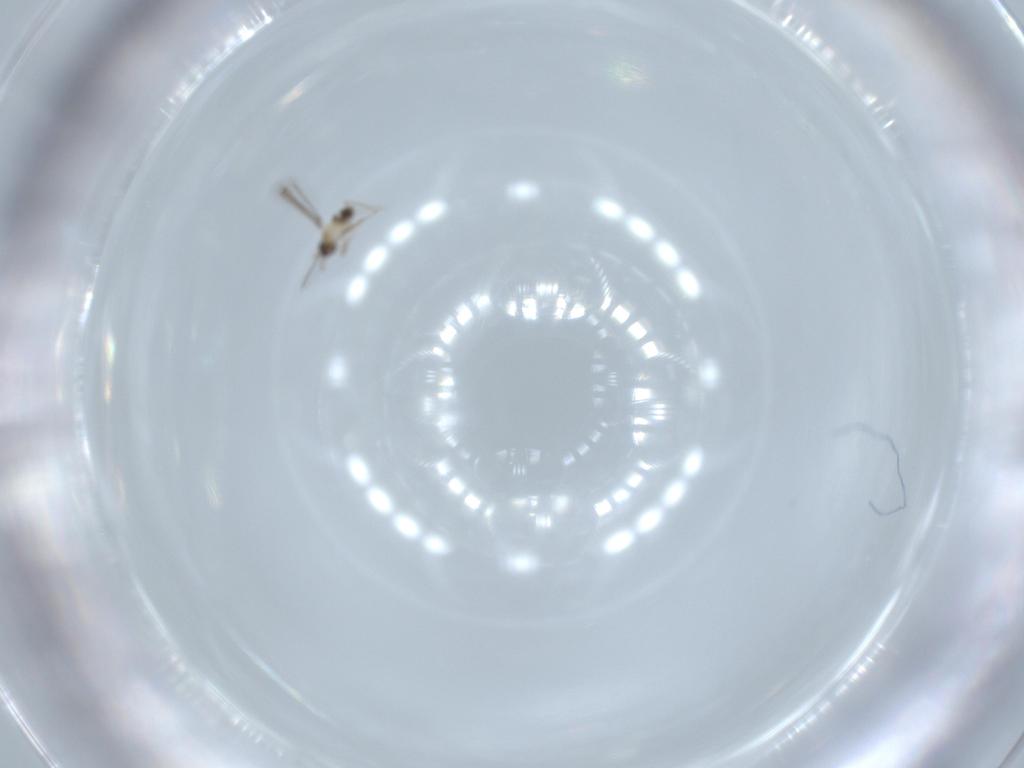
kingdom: Animalia
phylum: Arthropoda
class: Insecta
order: Hymenoptera
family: Mymaridae
